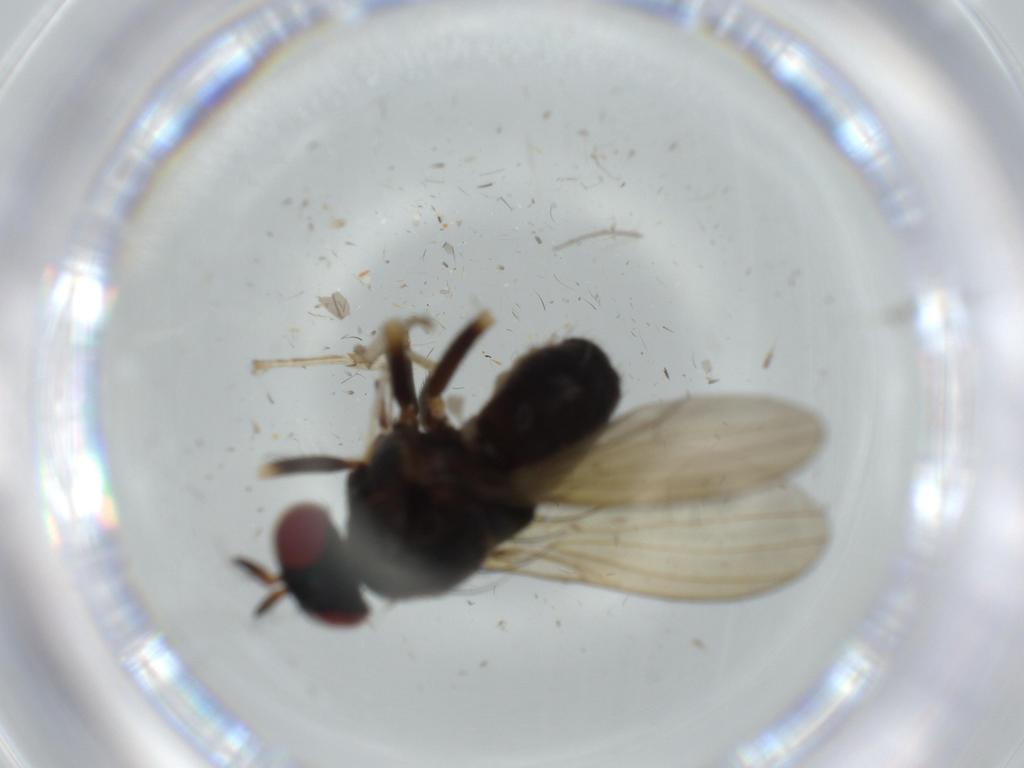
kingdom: Animalia
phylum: Arthropoda
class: Insecta
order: Diptera
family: Lauxaniidae
